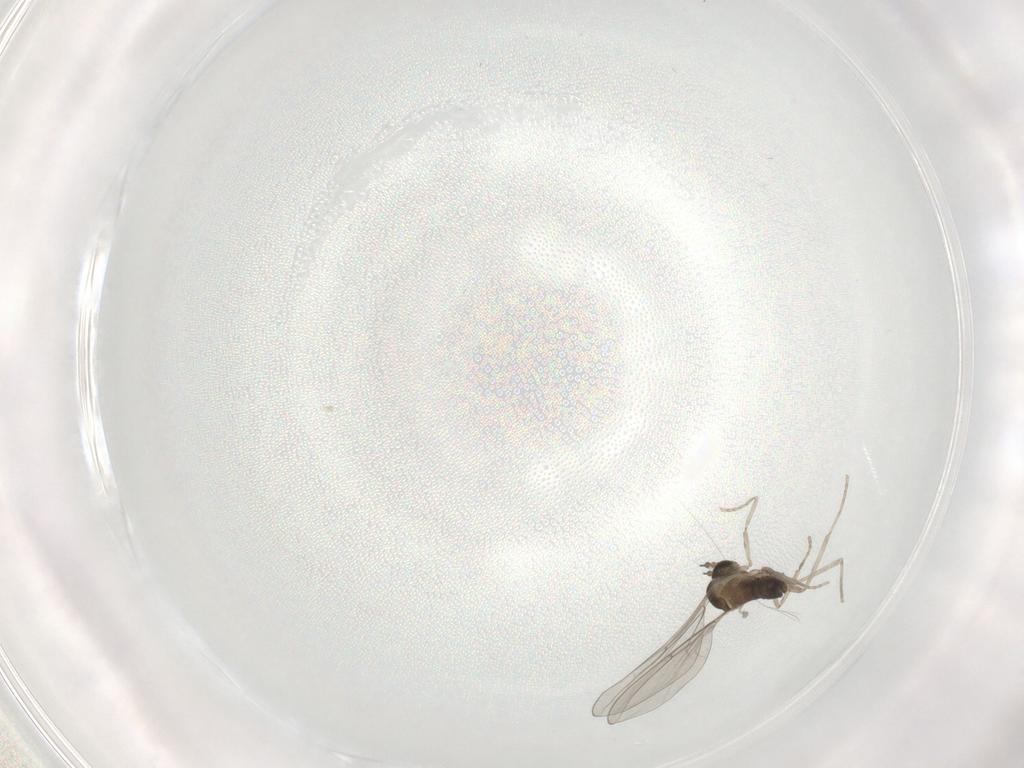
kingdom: Animalia
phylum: Arthropoda
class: Insecta
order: Diptera
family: Cecidomyiidae
